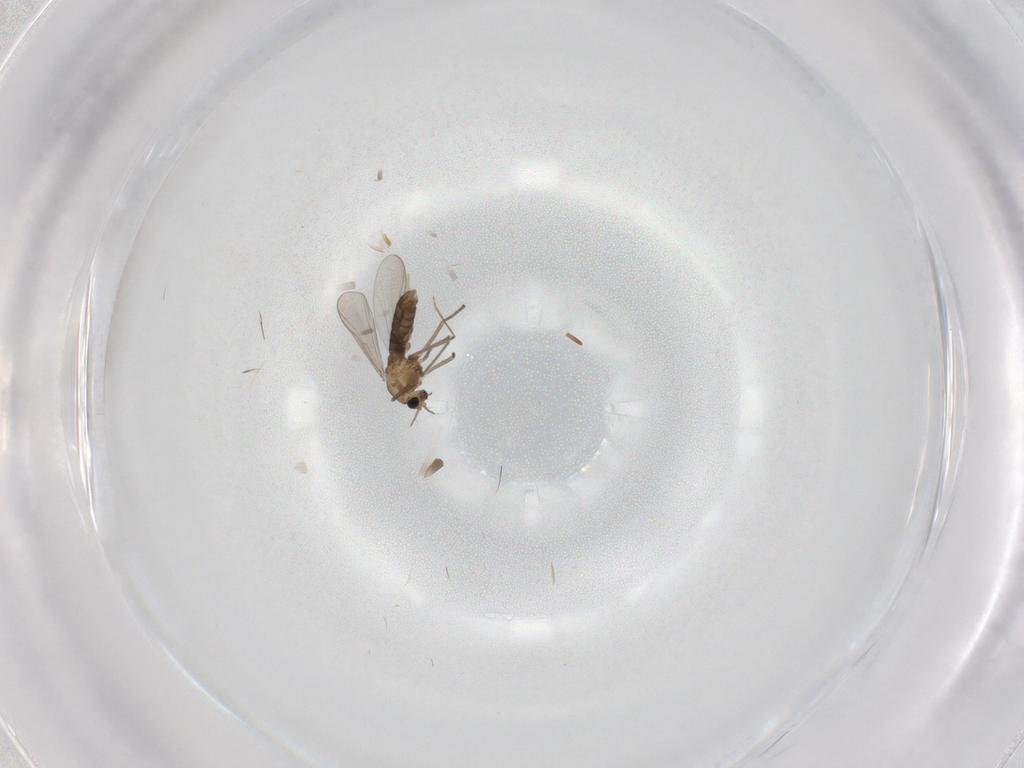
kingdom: Animalia
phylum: Arthropoda
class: Insecta
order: Diptera
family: Chironomidae
